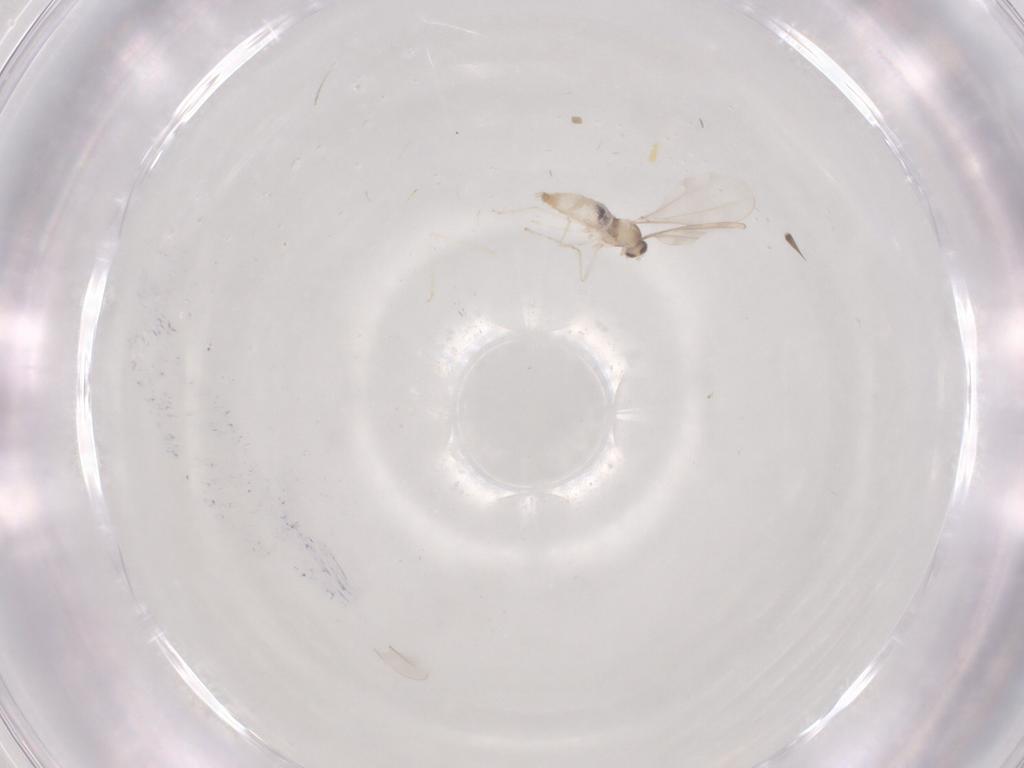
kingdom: Animalia
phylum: Arthropoda
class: Insecta
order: Diptera
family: Cecidomyiidae
